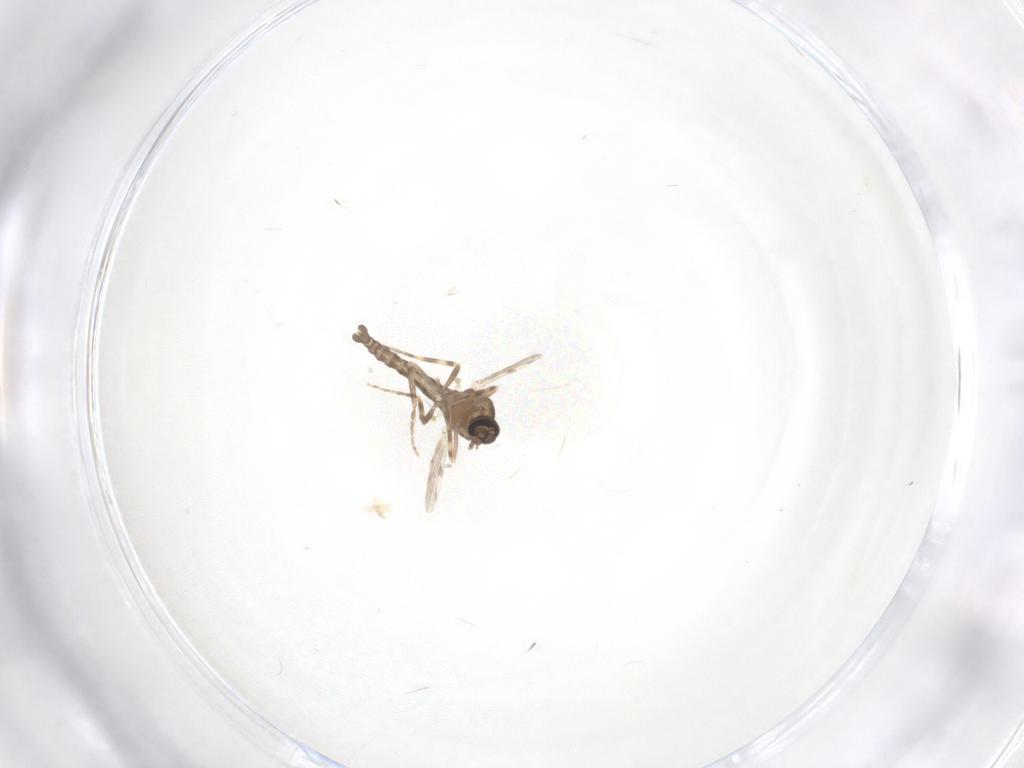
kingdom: Animalia
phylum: Arthropoda
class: Insecta
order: Diptera
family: Ceratopogonidae
